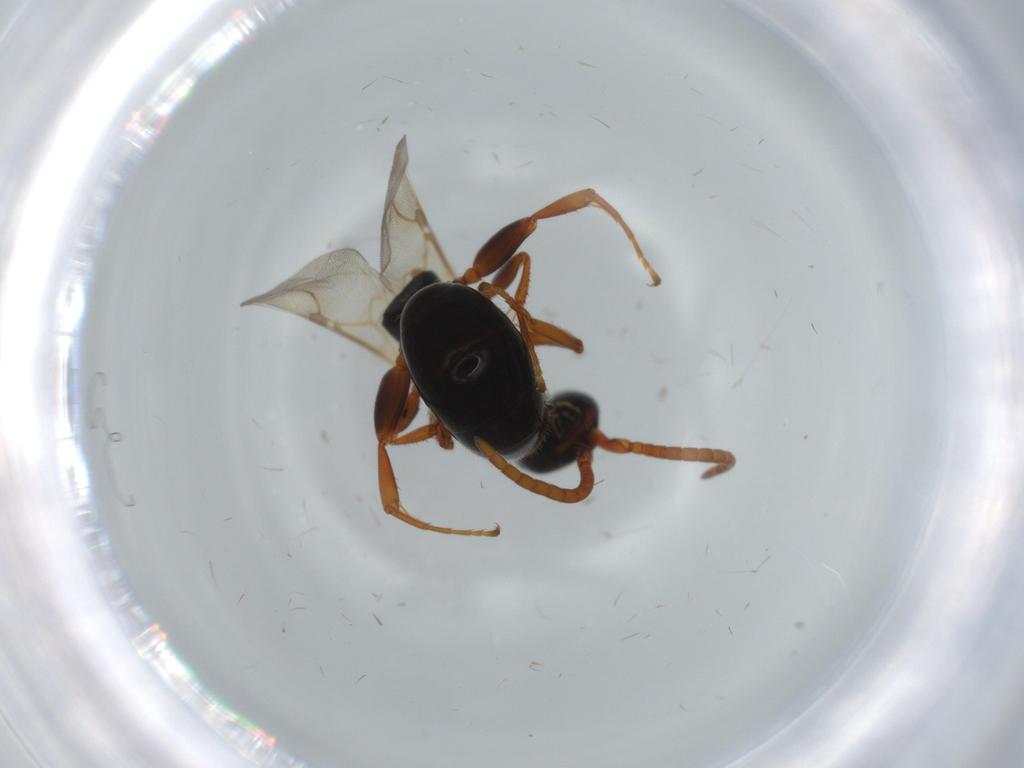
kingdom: Animalia
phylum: Arthropoda
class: Insecta
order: Hymenoptera
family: Bethylidae
